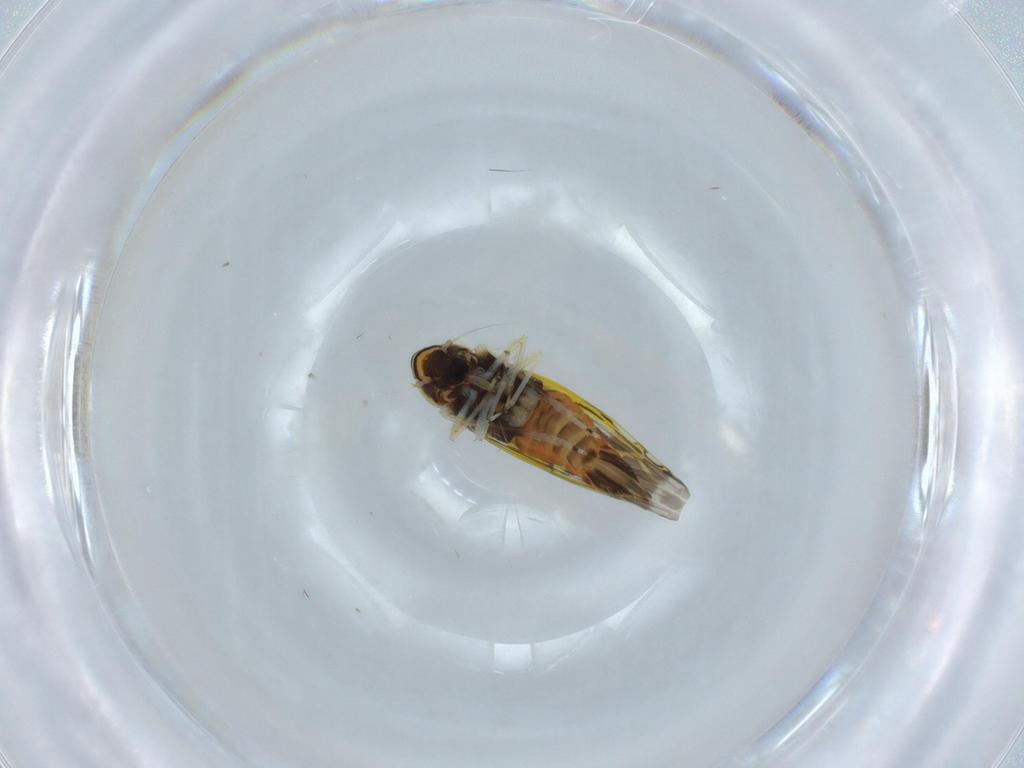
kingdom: Animalia
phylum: Arthropoda
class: Insecta
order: Hemiptera
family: Cicadellidae
